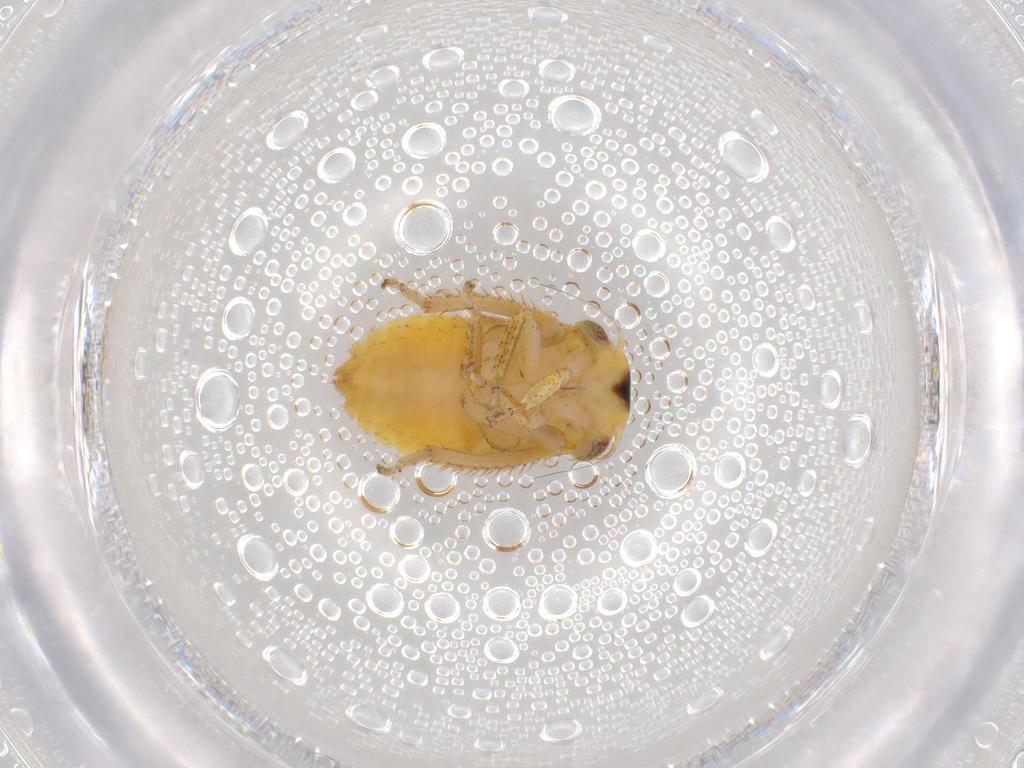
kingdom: Animalia
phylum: Arthropoda
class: Insecta
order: Hemiptera
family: Cicadellidae
